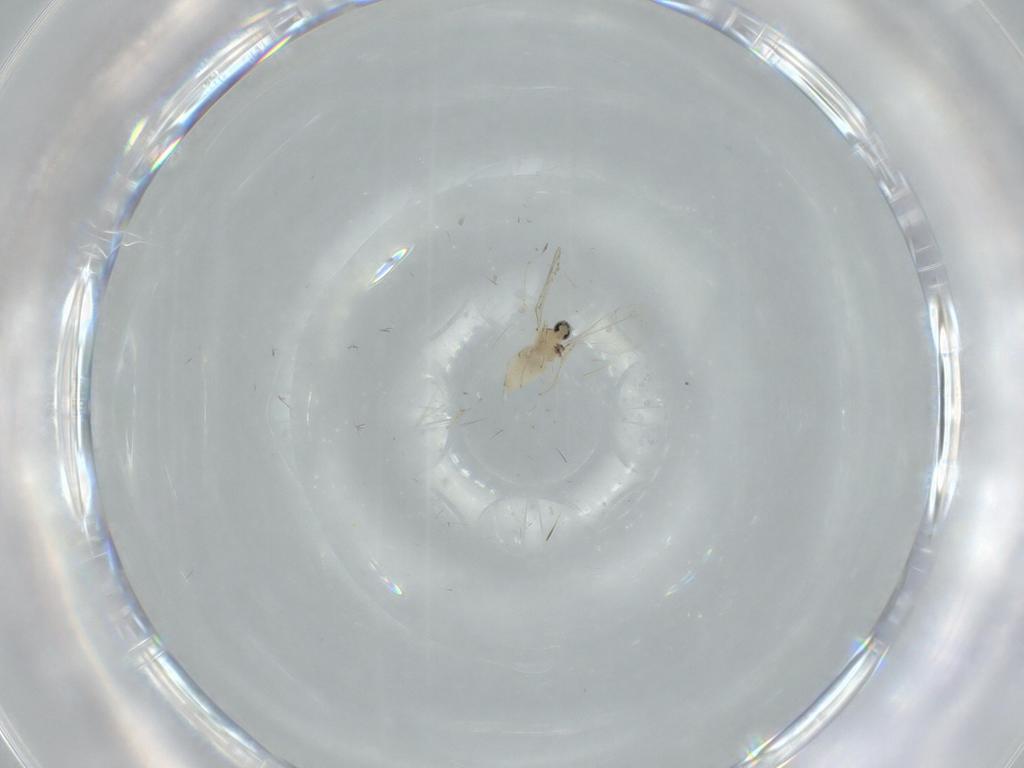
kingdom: Animalia
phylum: Arthropoda
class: Insecta
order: Diptera
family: Cecidomyiidae
